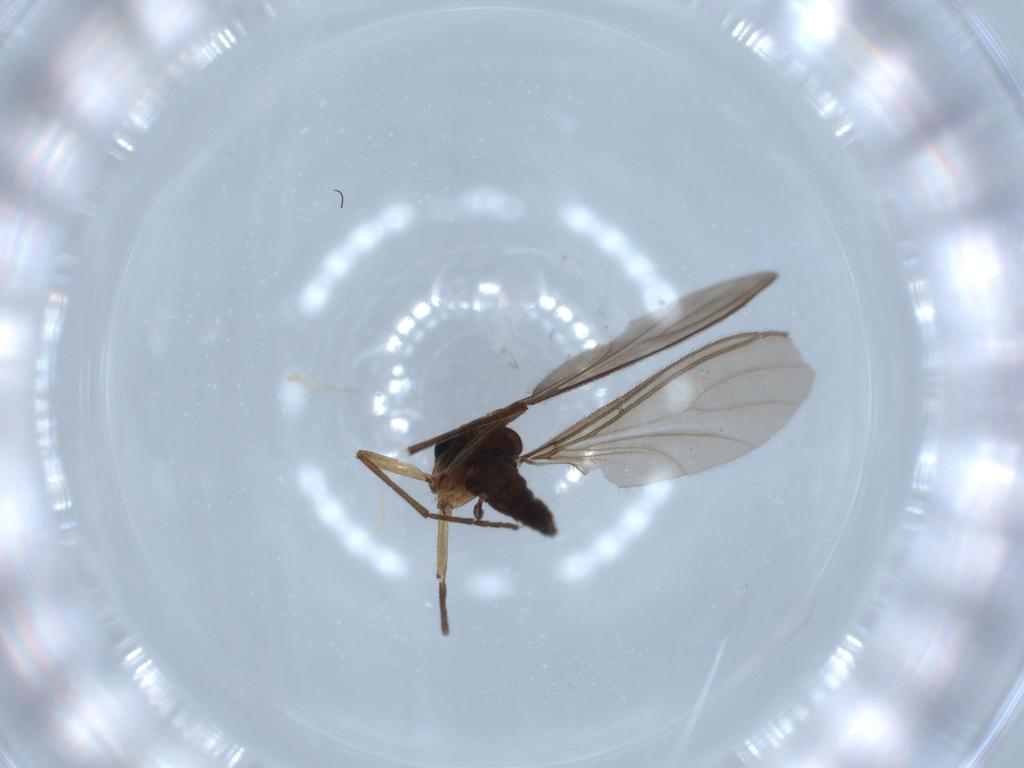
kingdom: Animalia
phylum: Arthropoda
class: Insecta
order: Diptera
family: Sciaridae
